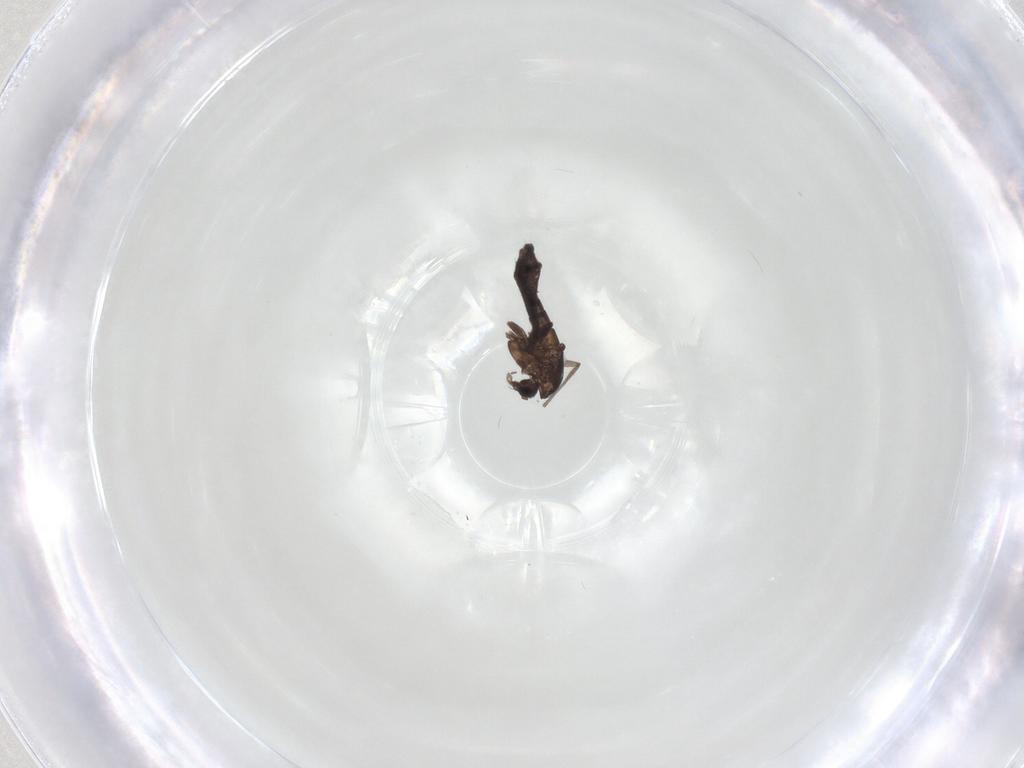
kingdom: Animalia
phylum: Arthropoda
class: Insecta
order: Diptera
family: Chironomidae
